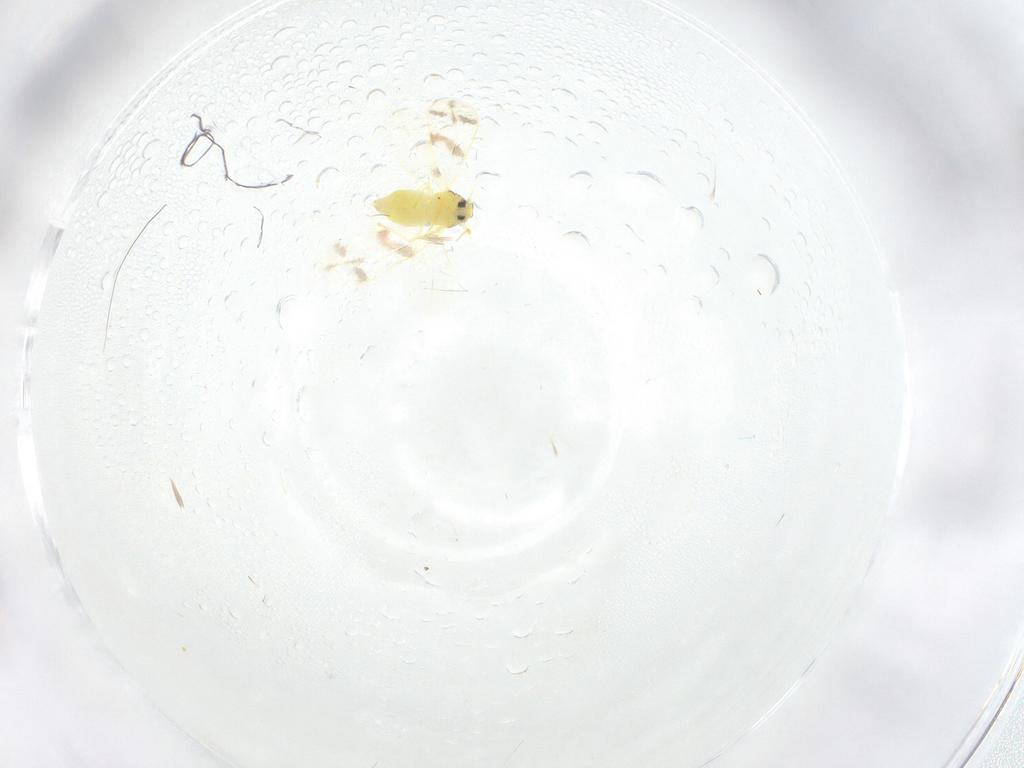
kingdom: Animalia
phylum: Arthropoda
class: Insecta
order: Hemiptera
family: Aleyrodidae
